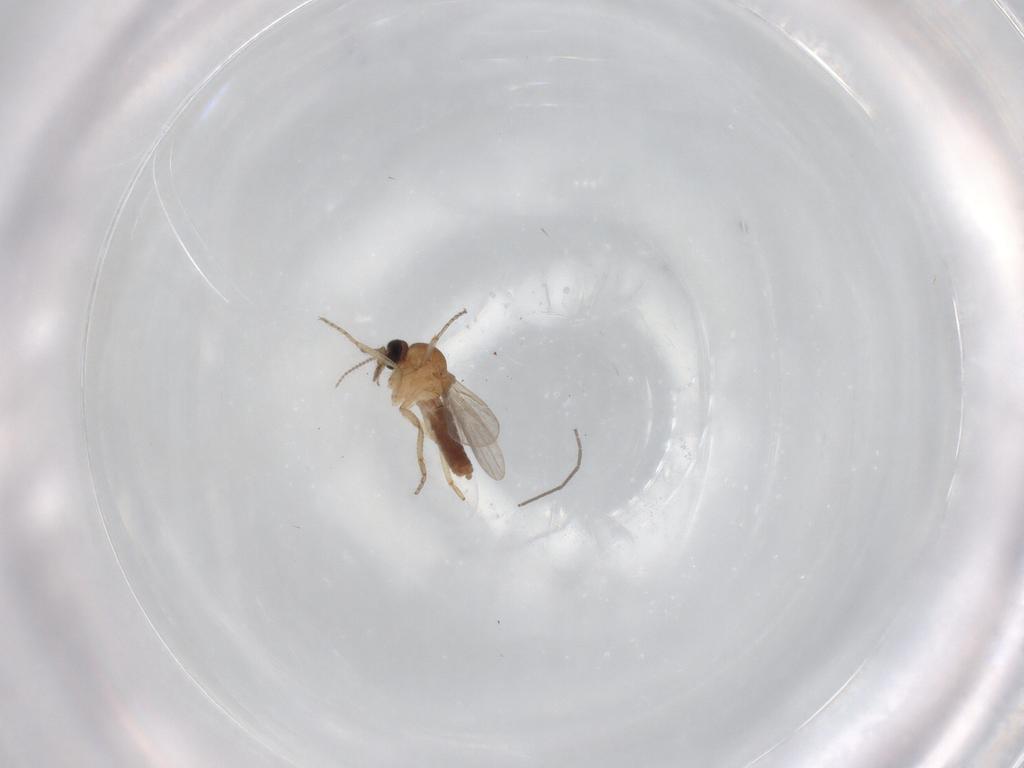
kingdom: Animalia
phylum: Arthropoda
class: Insecta
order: Diptera
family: Ceratopogonidae
